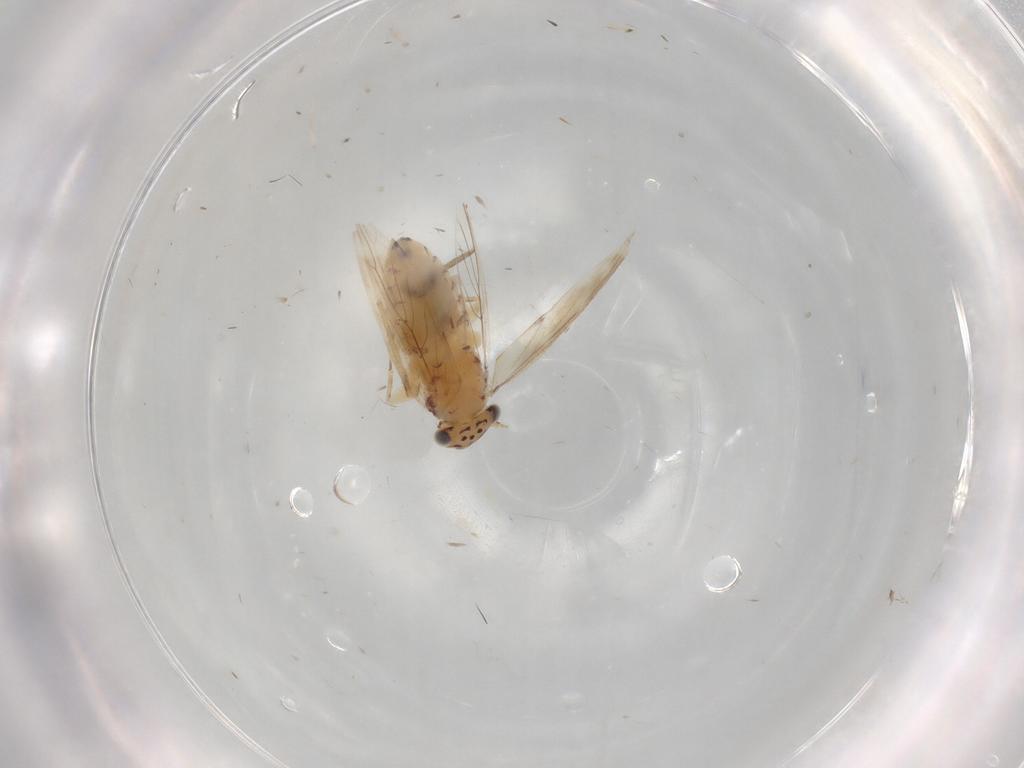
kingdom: Animalia
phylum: Arthropoda
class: Insecta
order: Psocodea
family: Lepidopsocidae
